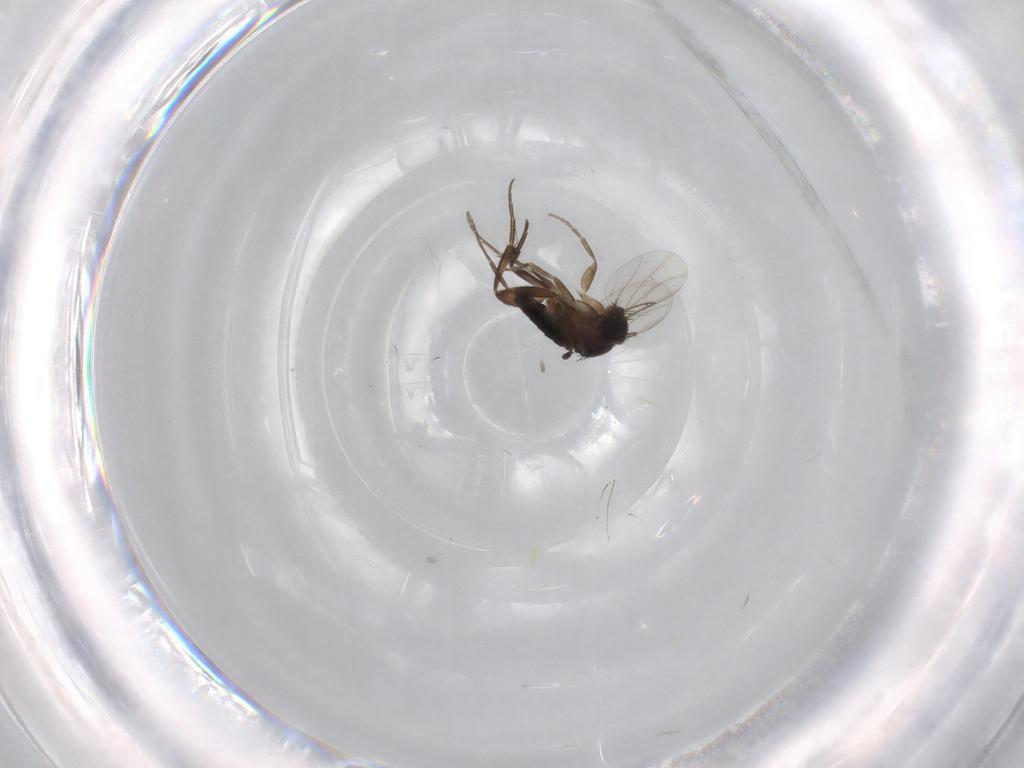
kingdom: Animalia
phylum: Arthropoda
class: Insecta
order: Diptera
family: Phoridae
